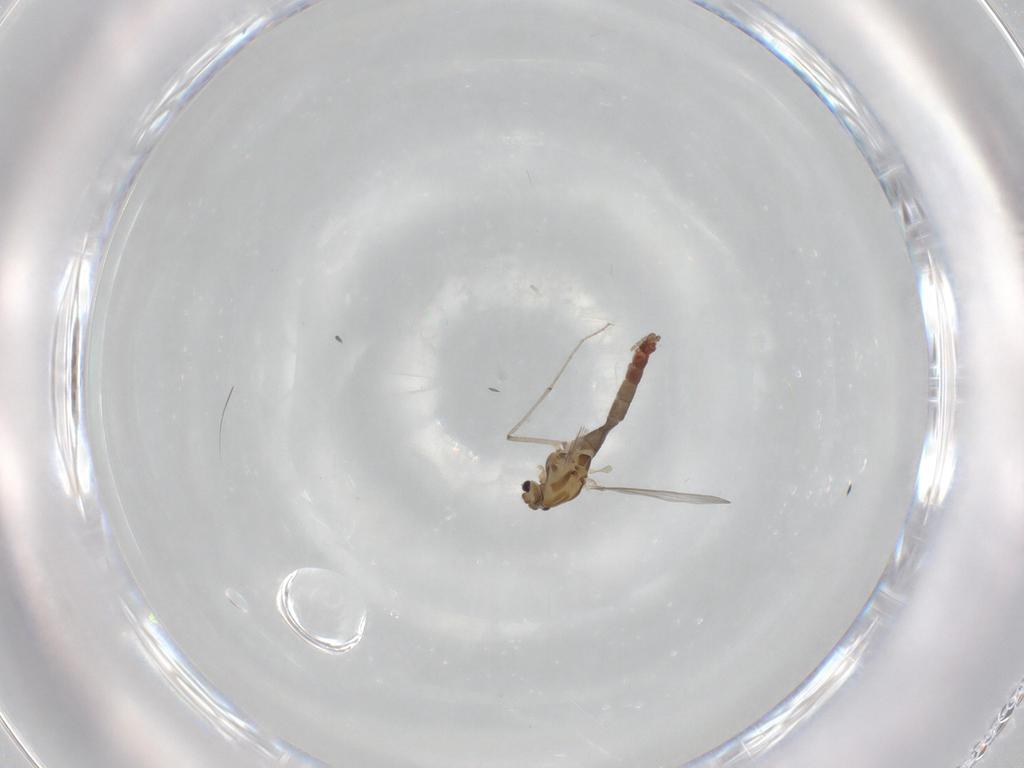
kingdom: Animalia
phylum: Arthropoda
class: Insecta
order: Diptera
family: Chironomidae
